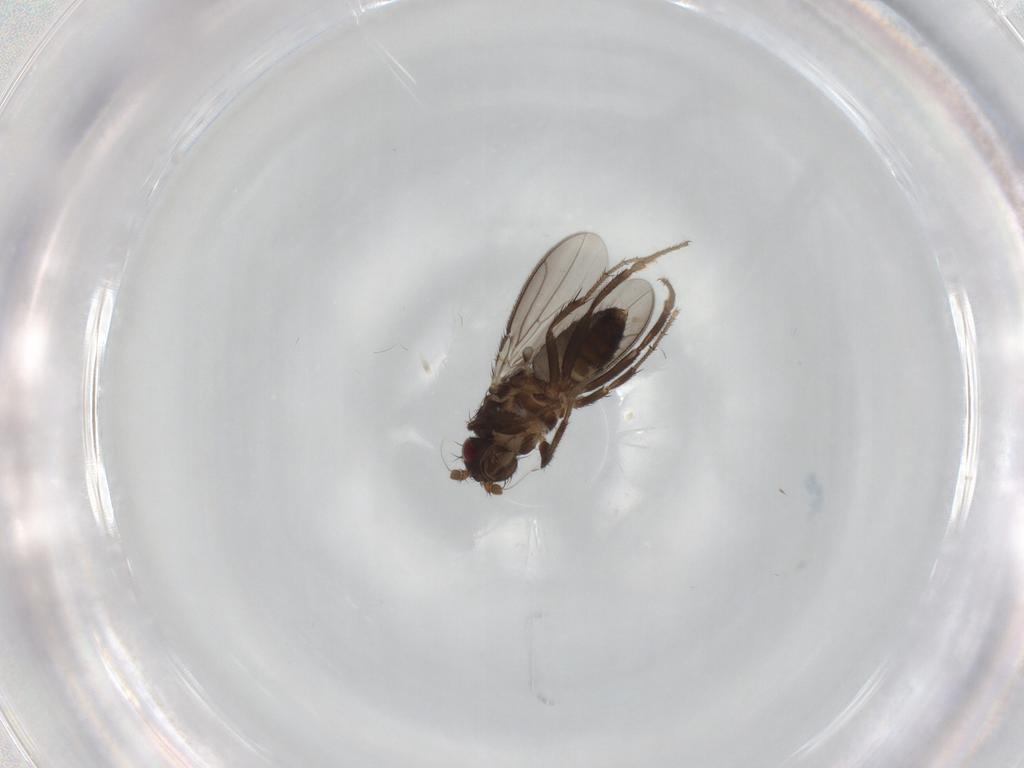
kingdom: Animalia
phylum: Arthropoda
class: Insecta
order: Diptera
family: Sphaeroceridae
